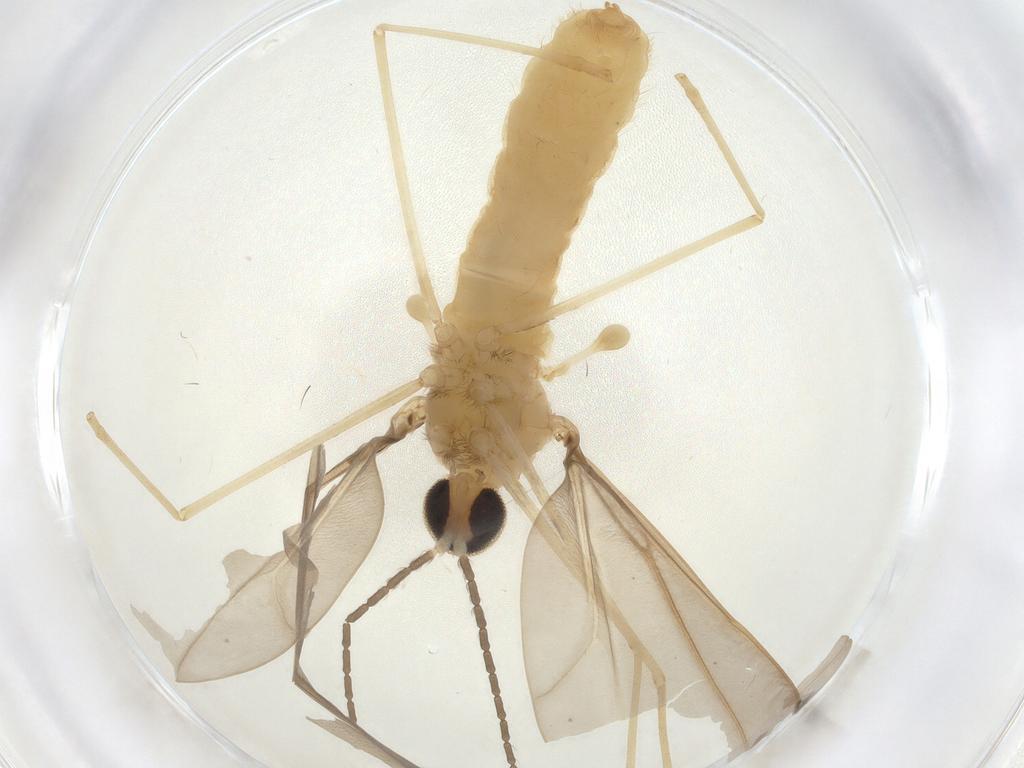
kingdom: Animalia
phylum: Arthropoda
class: Insecta
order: Diptera
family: Cecidomyiidae
